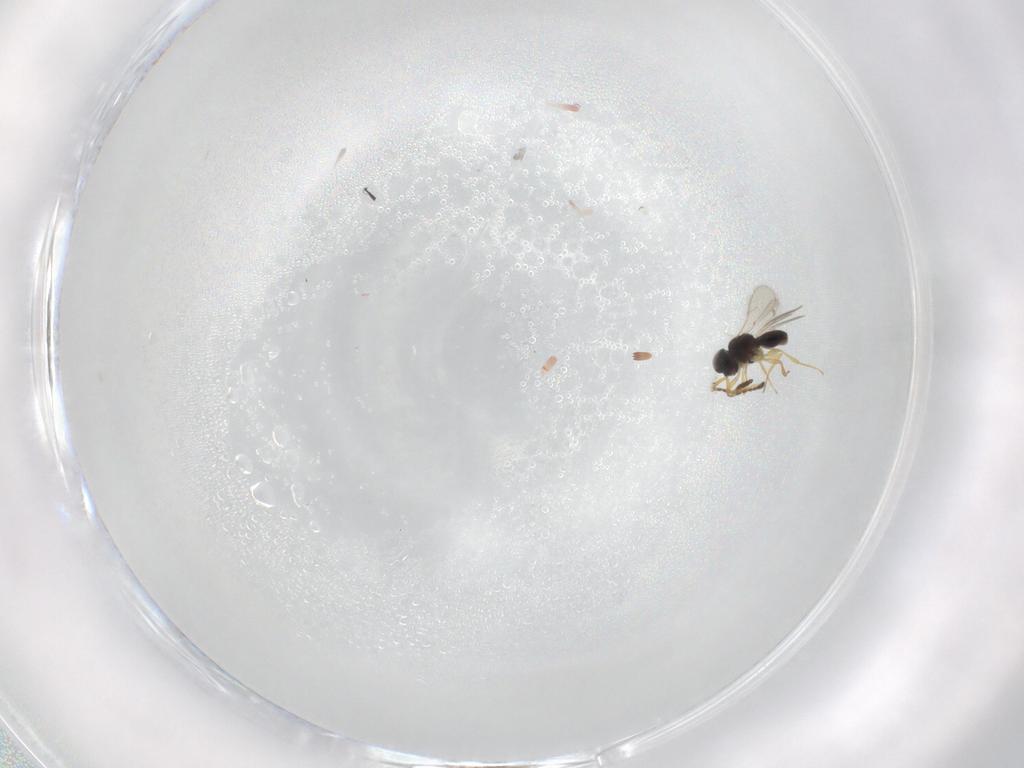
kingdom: Animalia
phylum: Arthropoda
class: Insecta
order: Hymenoptera
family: Scelionidae
